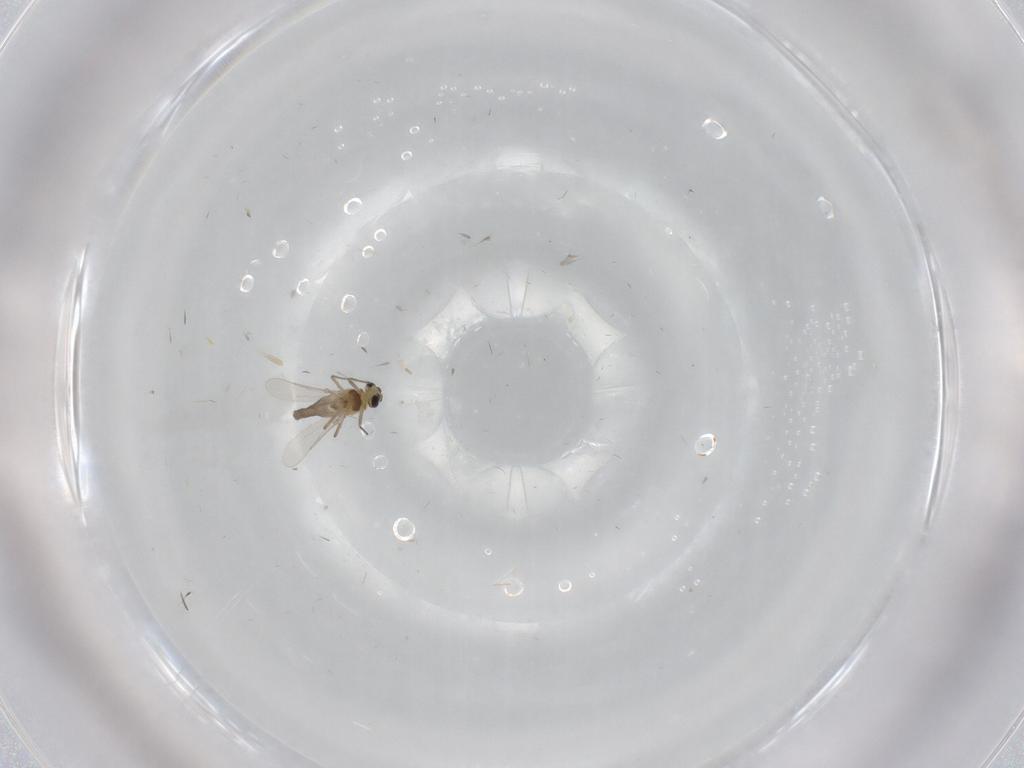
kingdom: Animalia
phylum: Arthropoda
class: Insecta
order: Diptera
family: Chironomidae
